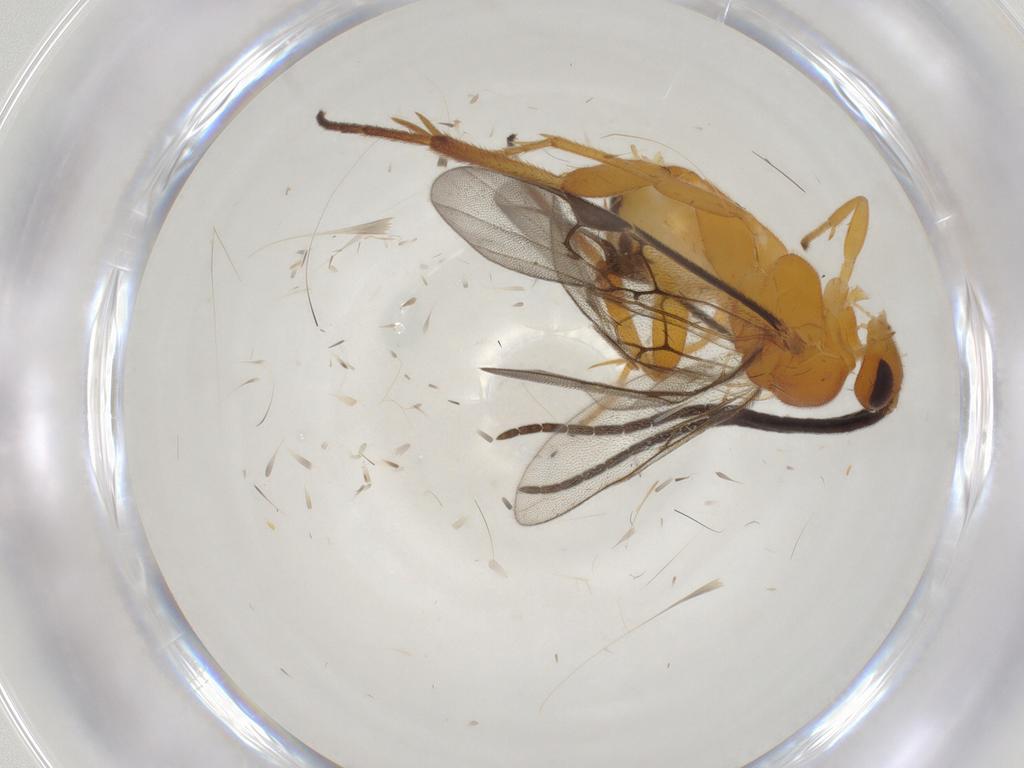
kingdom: Animalia
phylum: Arthropoda
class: Insecta
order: Hymenoptera
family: Braconidae
